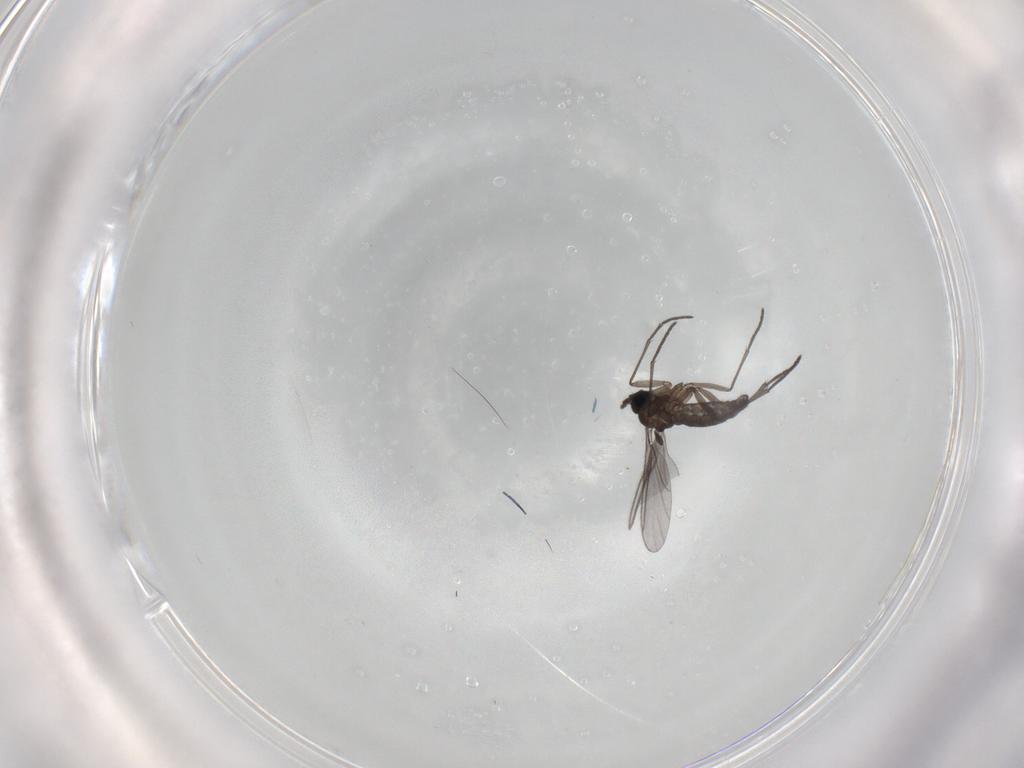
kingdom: Animalia
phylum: Arthropoda
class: Insecta
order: Diptera
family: Chironomidae
